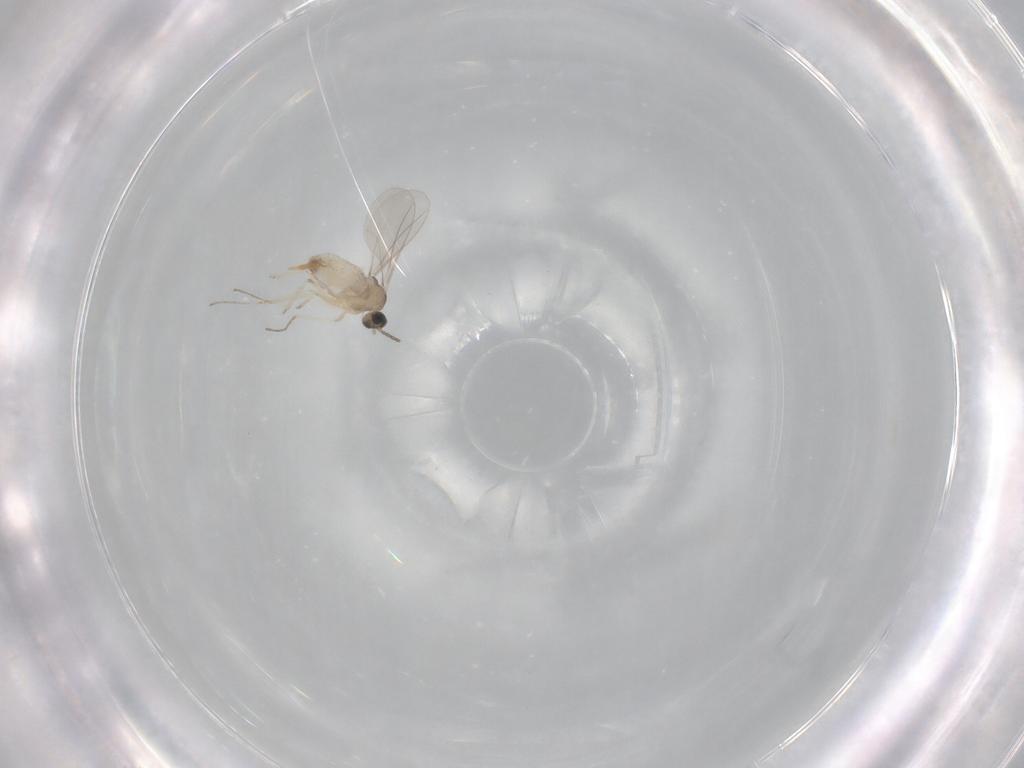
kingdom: Animalia
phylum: Arthropoda
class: Insecta
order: Diptera
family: Cecidomyiidae
